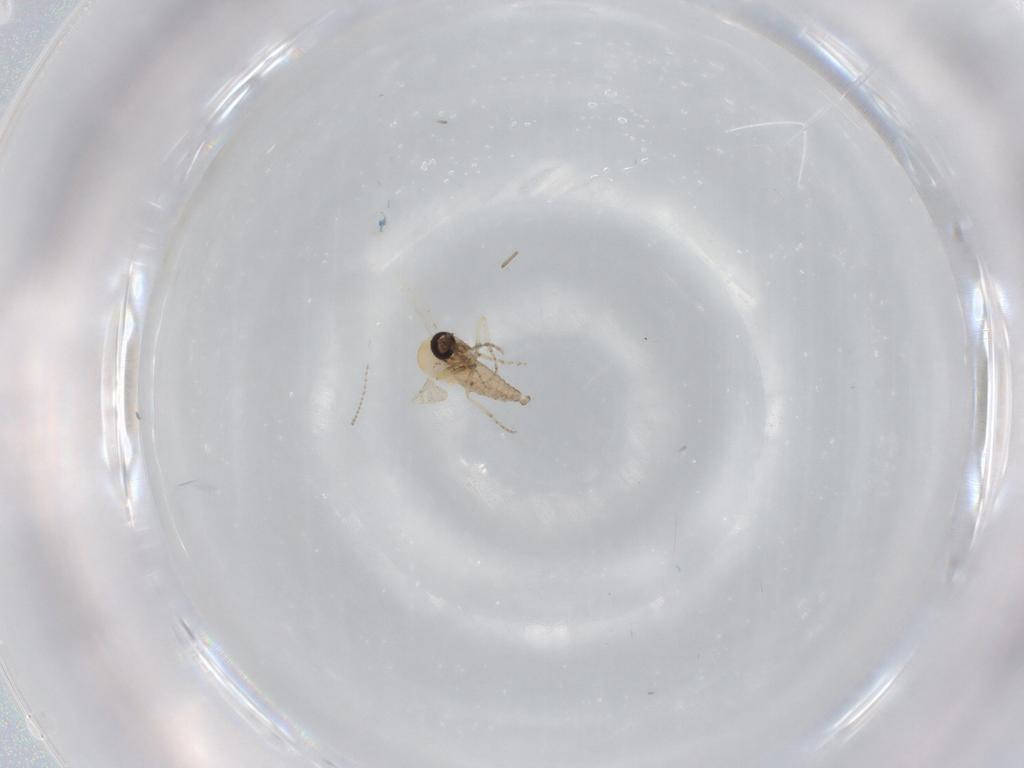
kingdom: Animalia
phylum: Arthropoda
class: Insecta
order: Diptera
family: Ceratopogonidae
